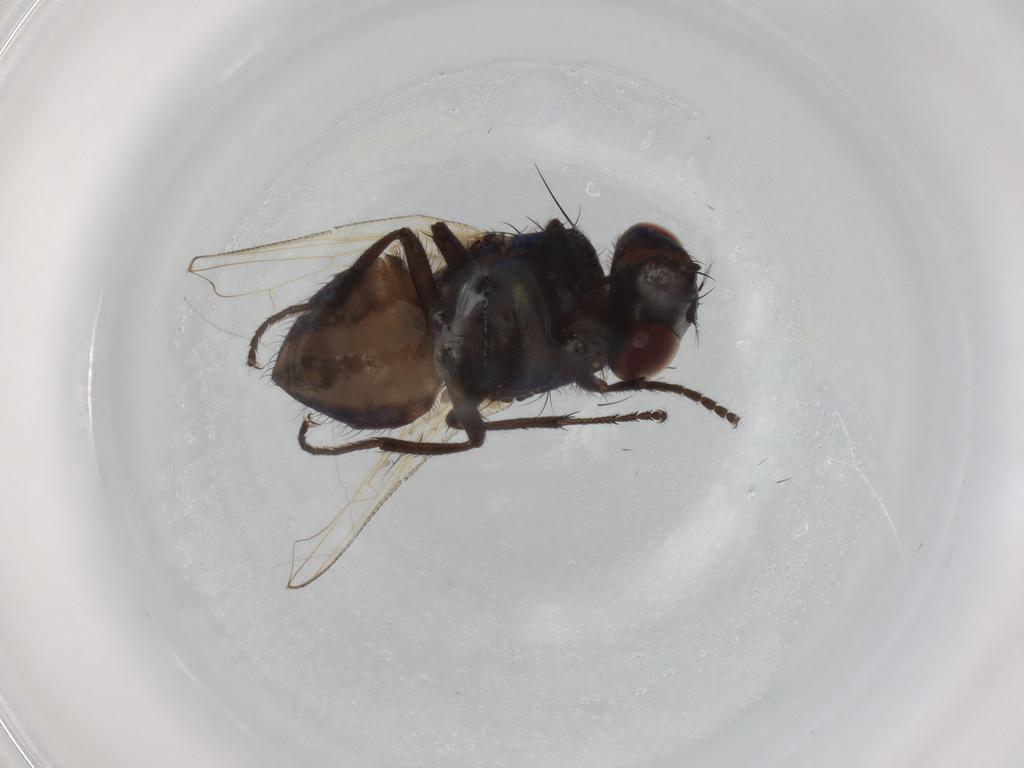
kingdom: Animalia
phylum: Arthropoda
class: Insecta
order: Diptera
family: Muscidae
